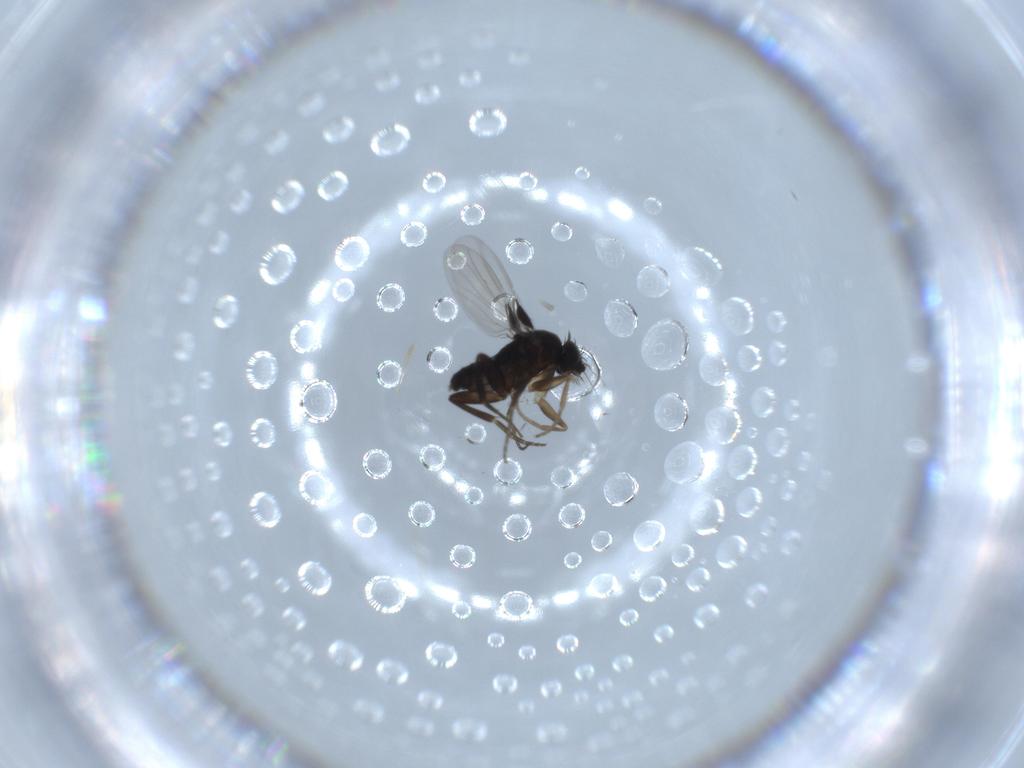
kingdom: Animalia
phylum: Arthropoda
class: Insecta
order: Diptera
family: Phoridae
